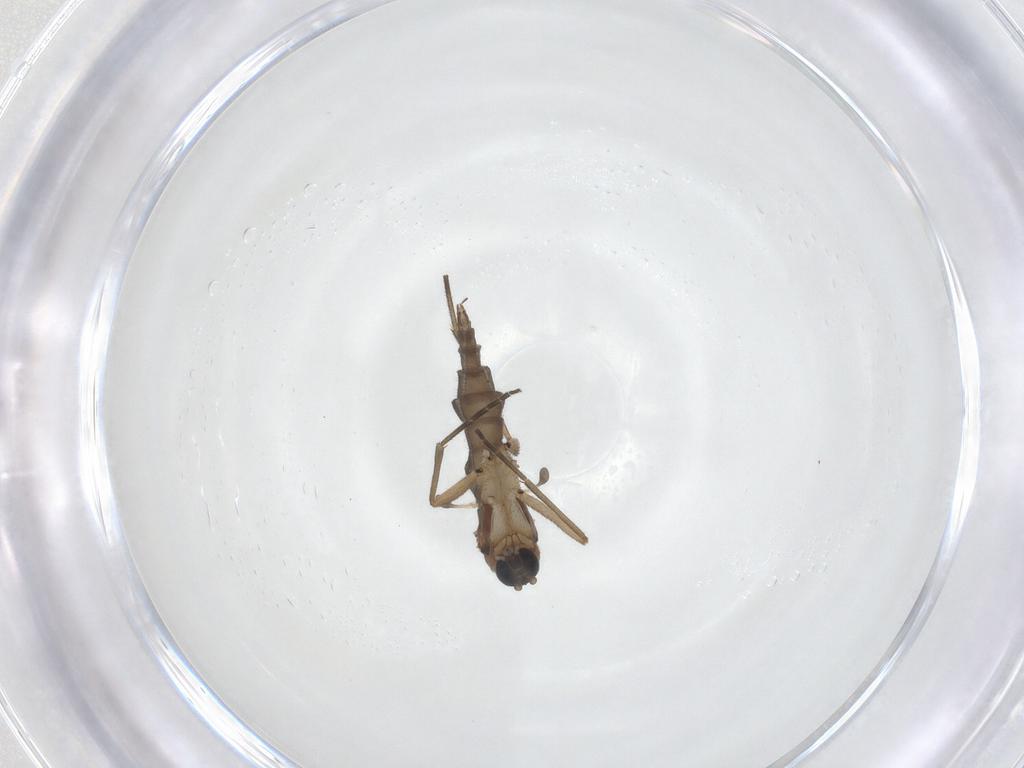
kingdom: Animalia
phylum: Arthropoda
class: Insecta
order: Diptera
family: Sciaridae
